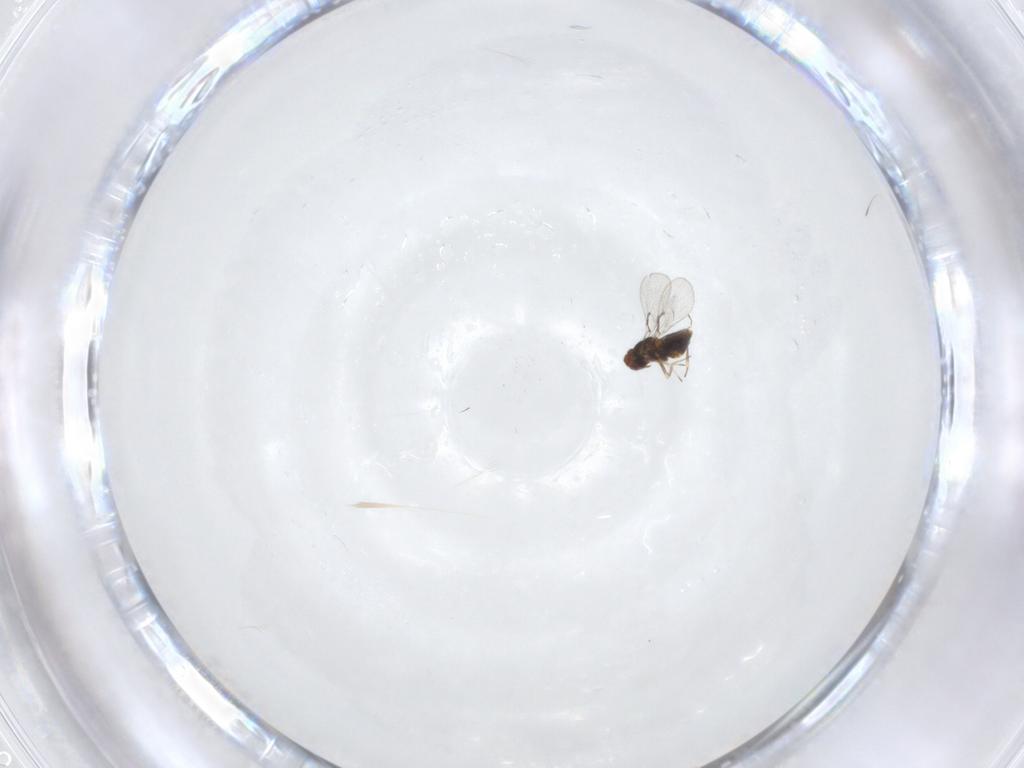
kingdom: Animalia
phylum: Arthropoda
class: Insecta
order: Hymenoptera
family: Trichogrammatidae
